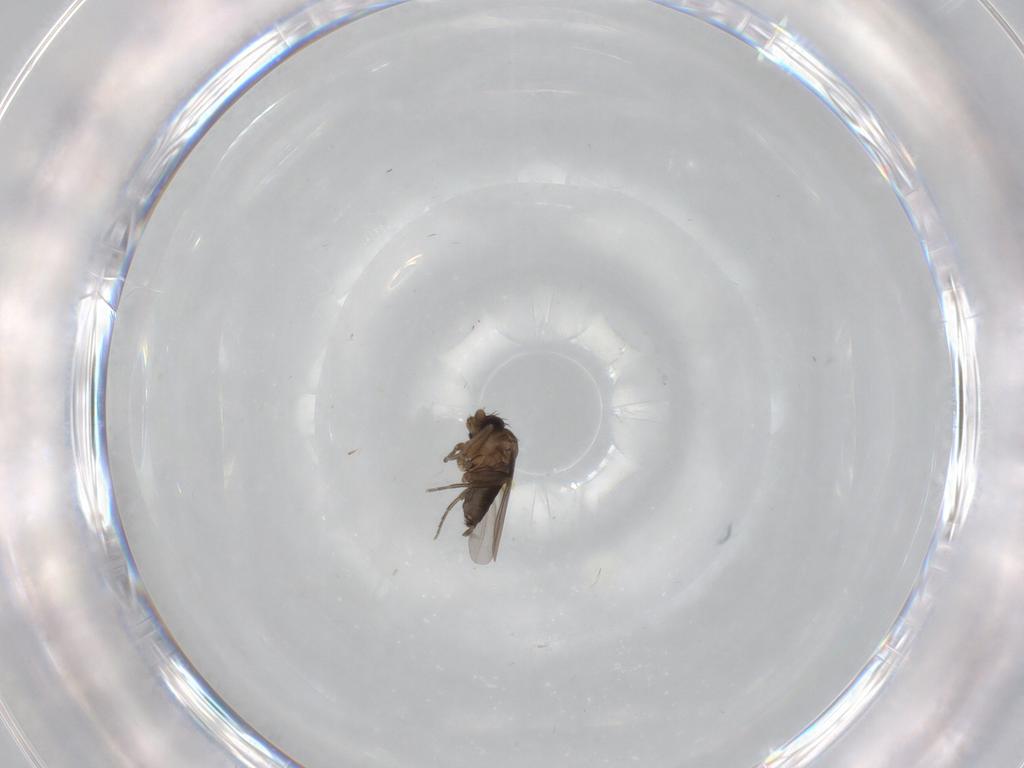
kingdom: Animalia
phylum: Arthropoda
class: Insecta
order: Diptera
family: Phoridae
